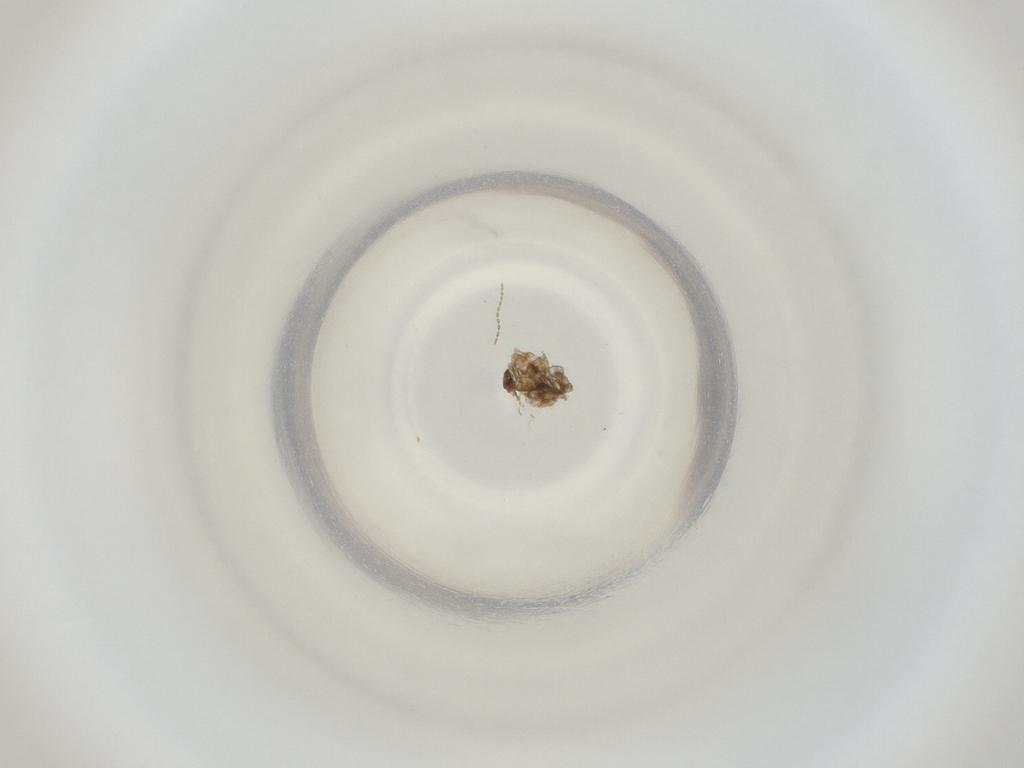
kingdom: Animalia
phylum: Arthropoda
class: Insecta
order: Diptera
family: Cecidomyiidae
